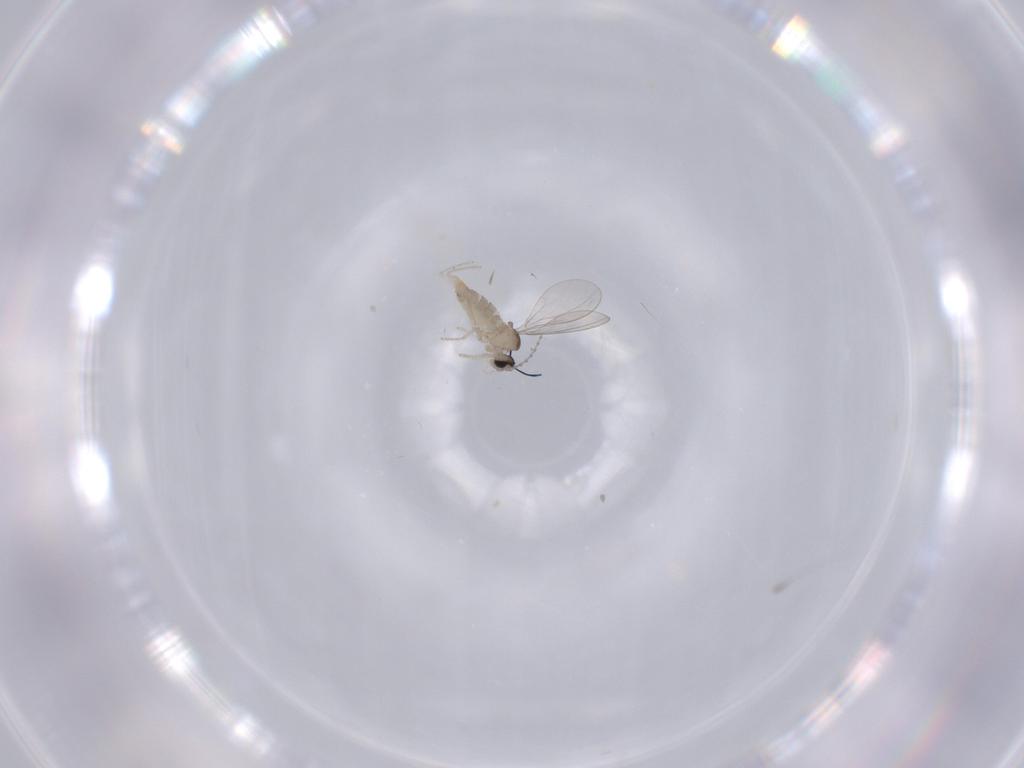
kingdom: Animalia
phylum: Arthropoda
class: Insecta
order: Diptera
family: Cecidomyiidae
